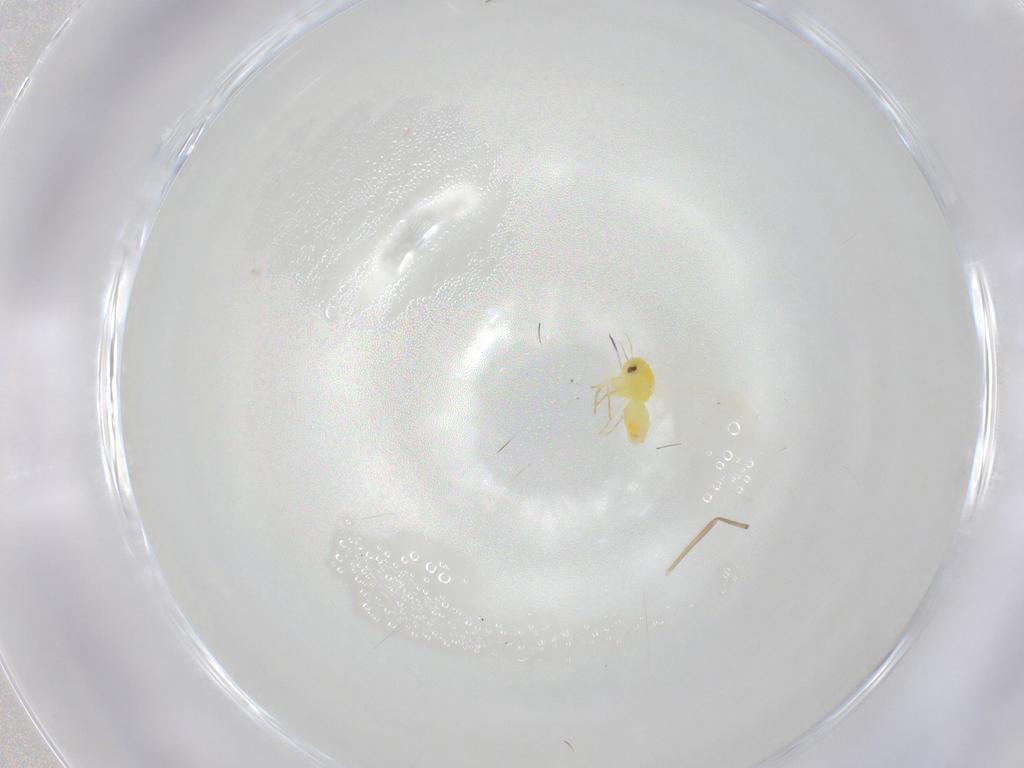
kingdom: Animalia
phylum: Arthropoda
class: Insecta
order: Hemiptera
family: Aleyrodidae
